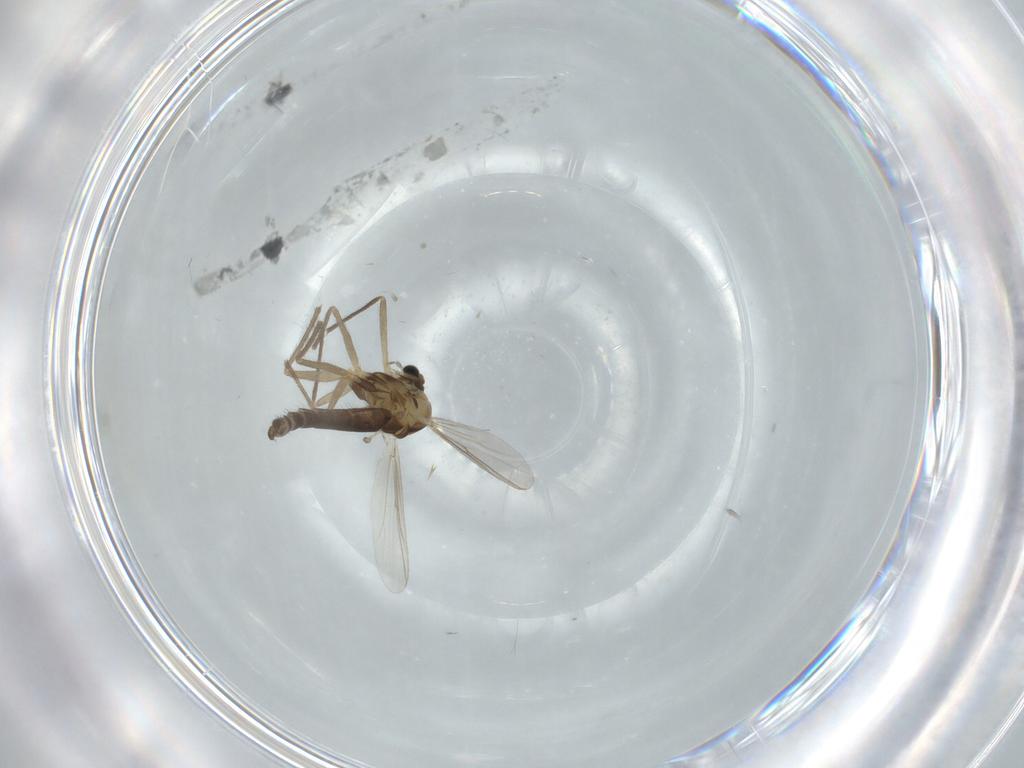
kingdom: Animalia
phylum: Arthropoda
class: Insecta
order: Diptera
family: Chironomidae
